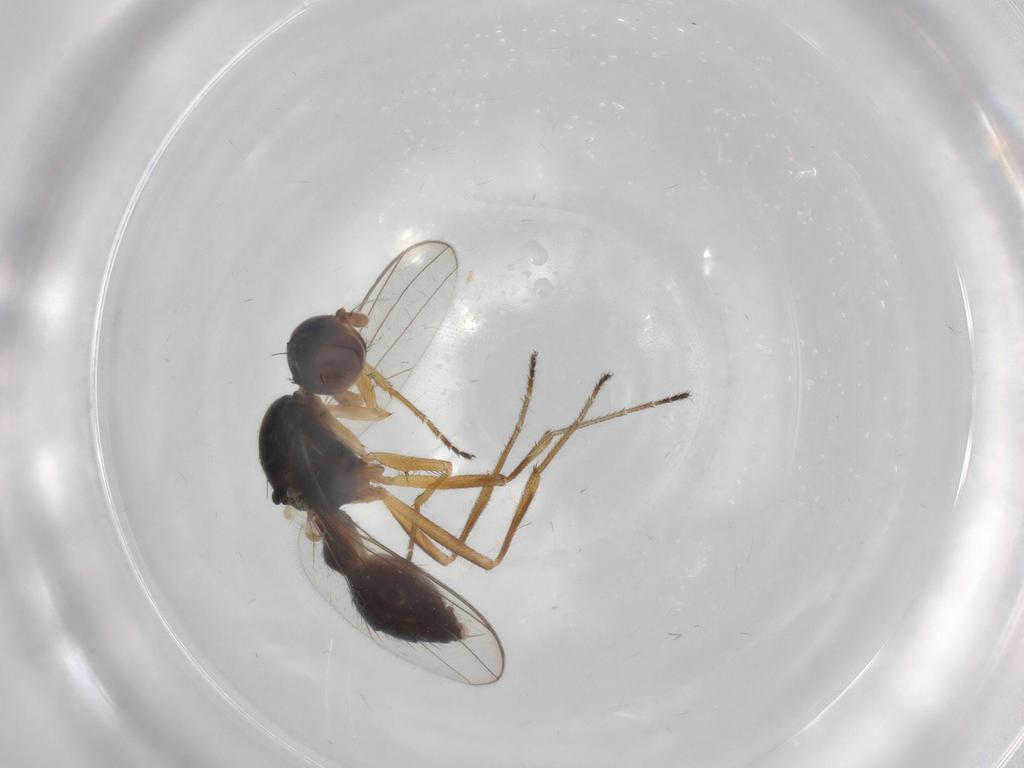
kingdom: Animalia
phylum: Arthropoda
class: Insecta
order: Diptera
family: Sepsidae
